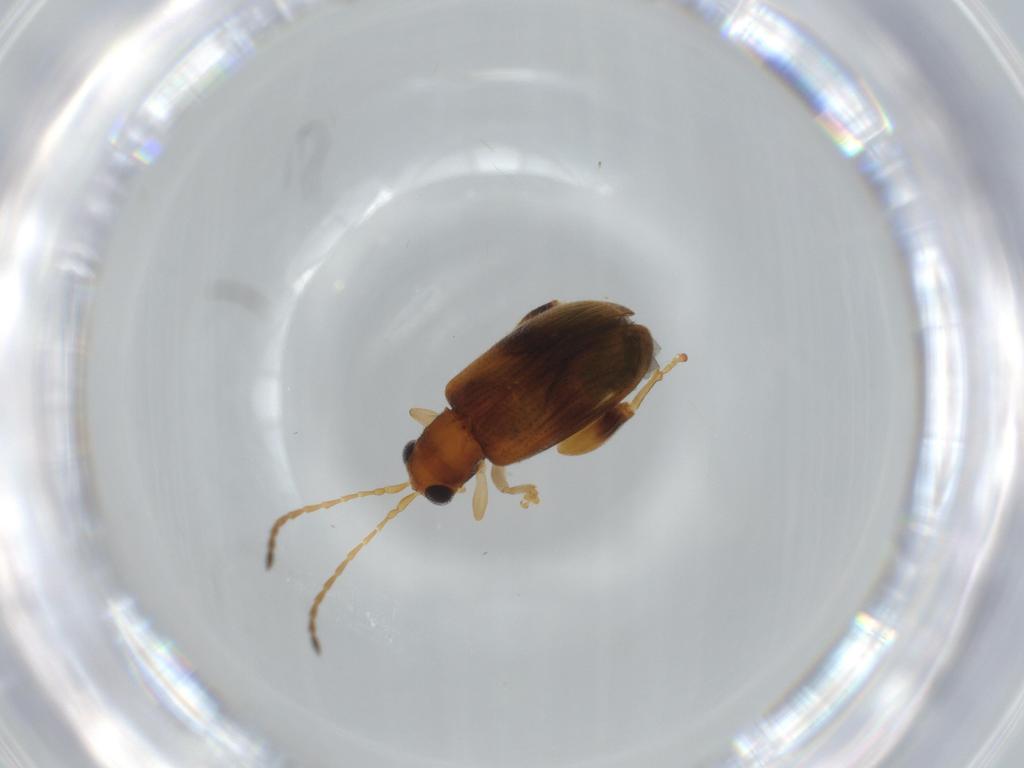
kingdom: Animalia
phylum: Arthropoda
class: Insecta
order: Coleoptera
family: Chrysomelidae
